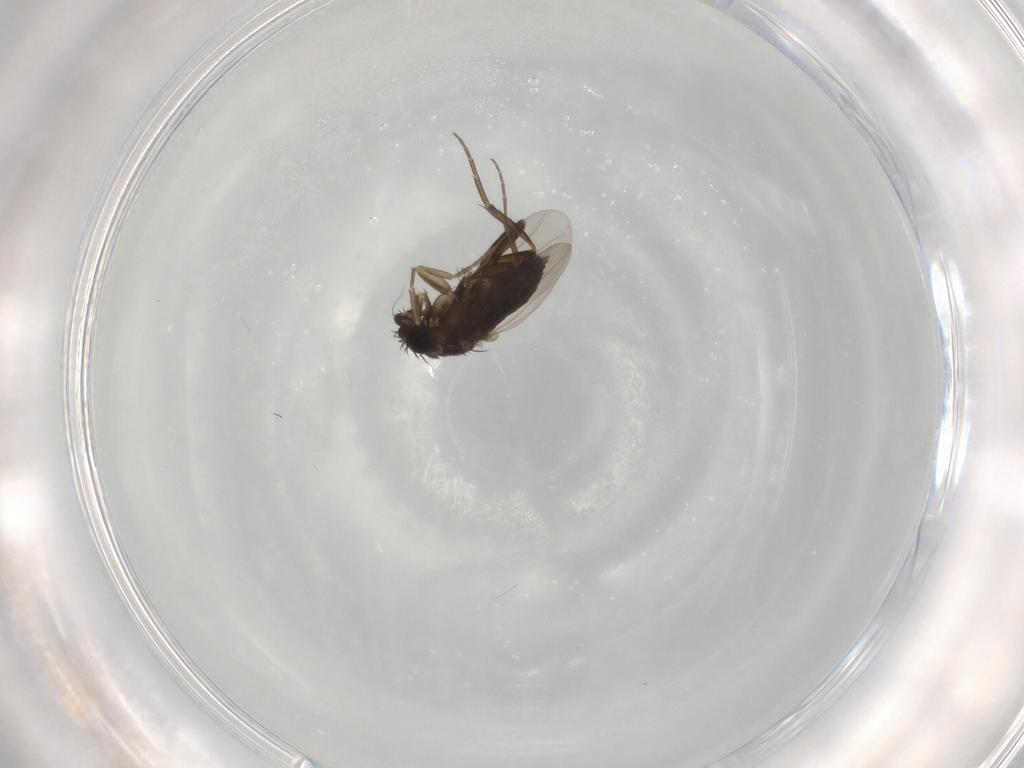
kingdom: Animalia
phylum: Arthropoda
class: Insecta
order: Diptera
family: Phoridae
